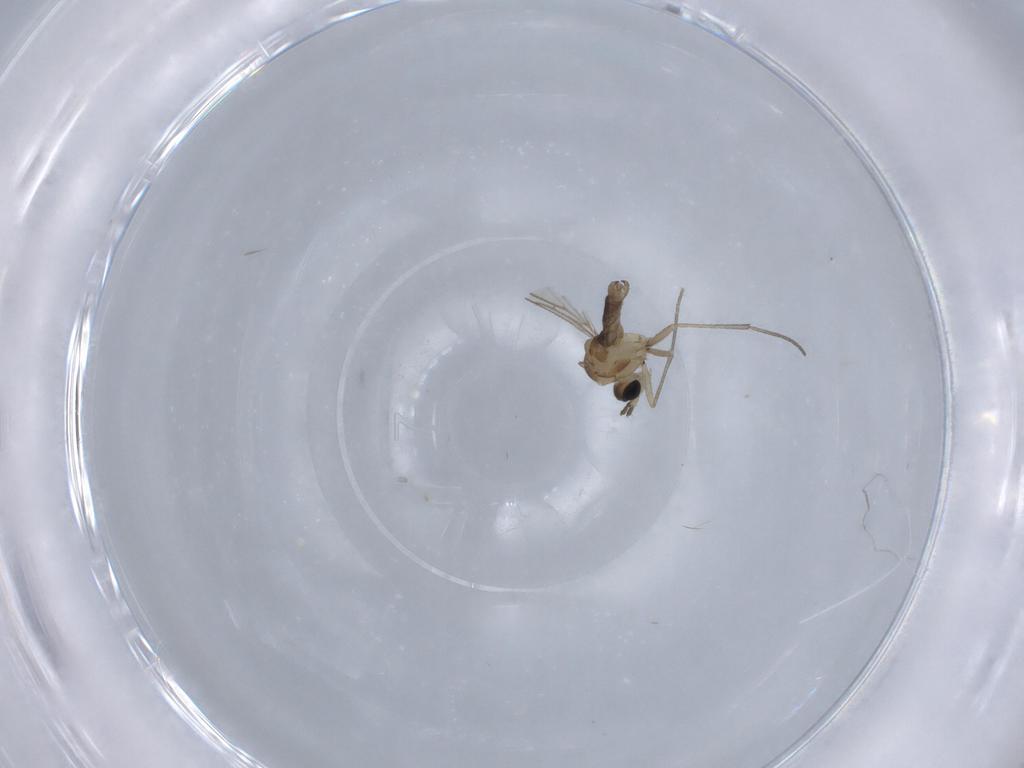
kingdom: Animalia
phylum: Arthropoda
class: Insecta
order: Diptera
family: Sciaridae
